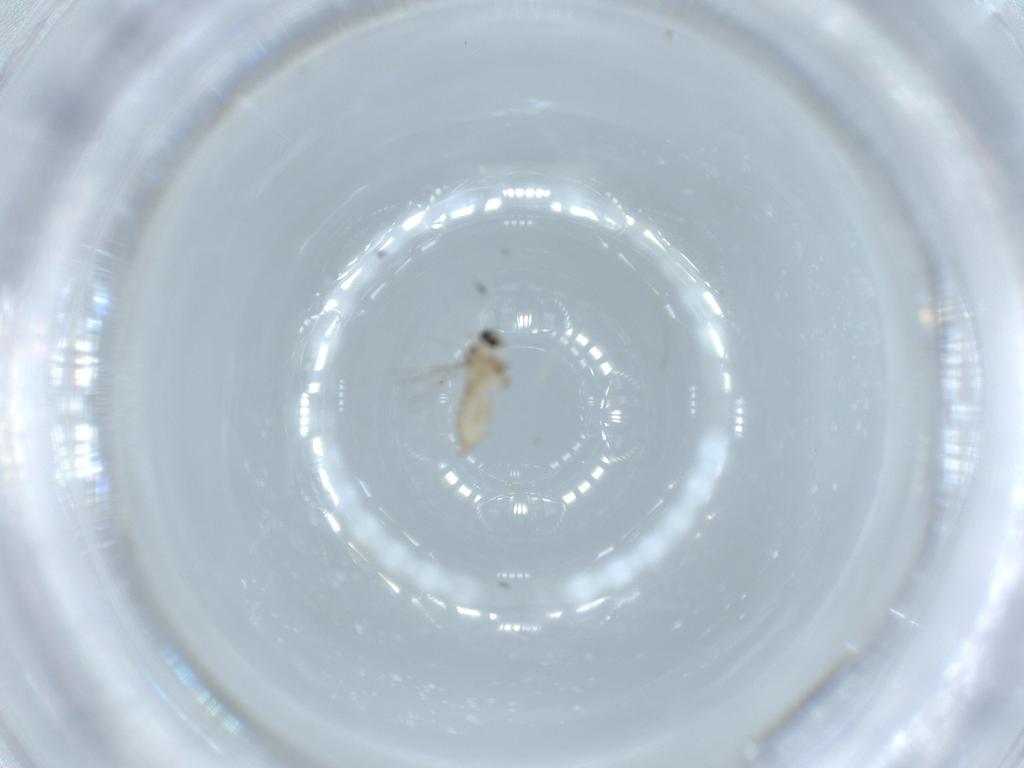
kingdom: Animalia
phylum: Arthropoda
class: Insecta
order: Diptera
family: Cecidomyiidae
